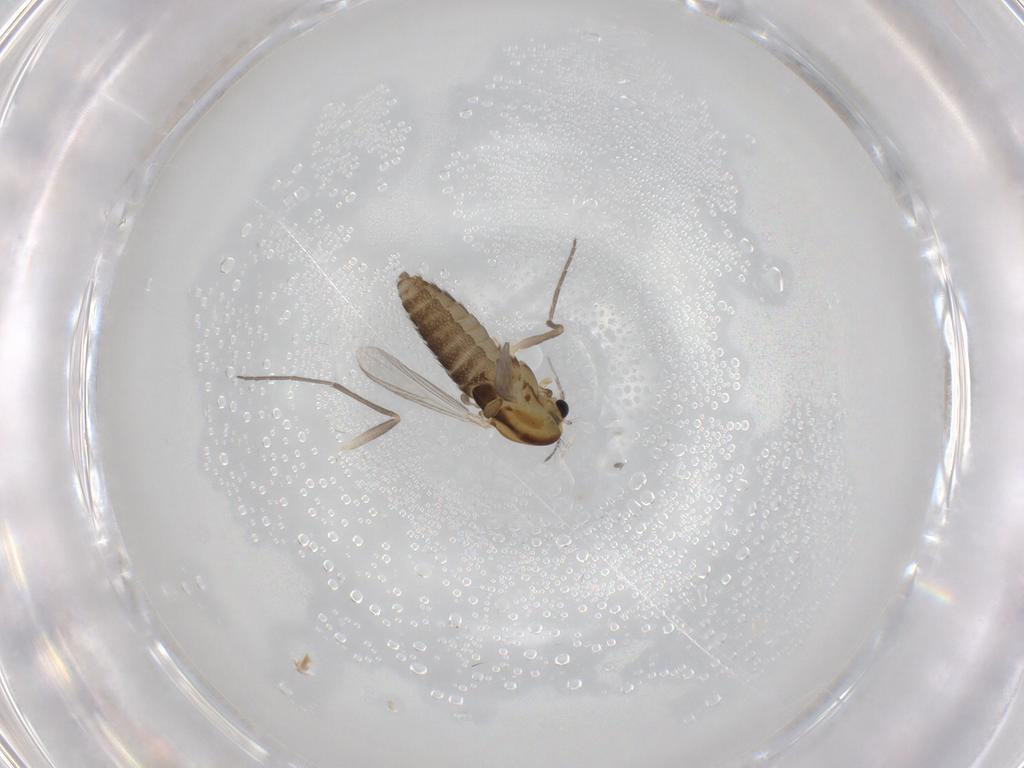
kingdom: Animalia
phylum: Arthropoda
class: Insecta
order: Diptera
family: Chironomidae
